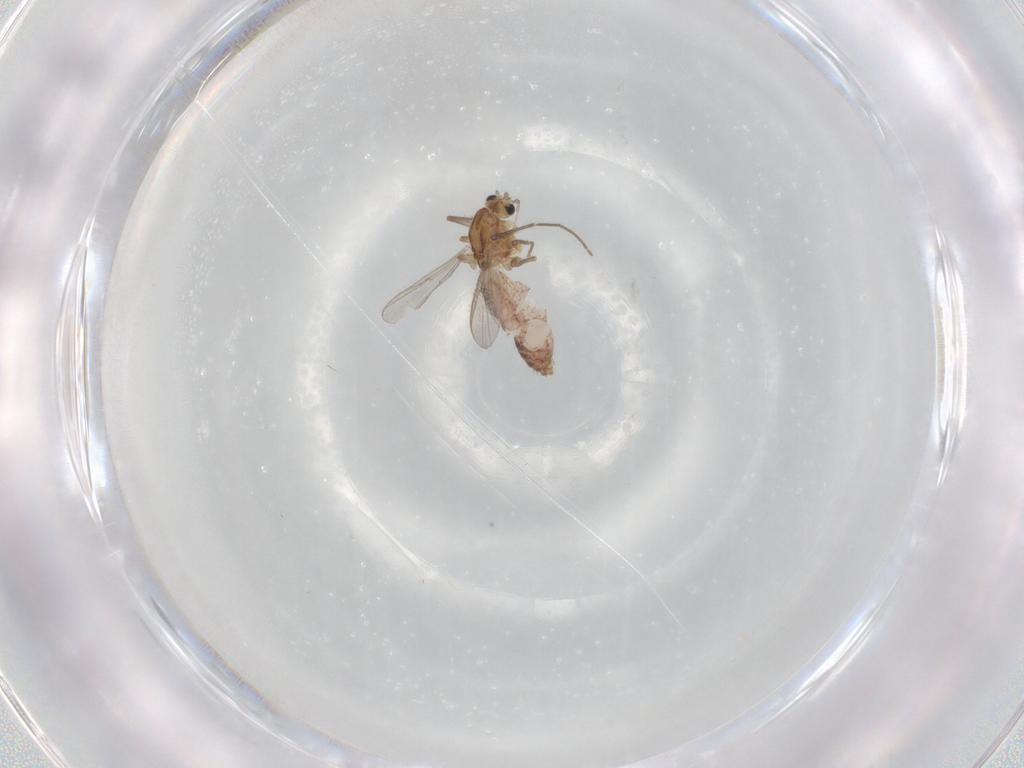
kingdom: Animalia
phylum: Arthropoda
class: Insecta
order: Diptera
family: Chironomidae
